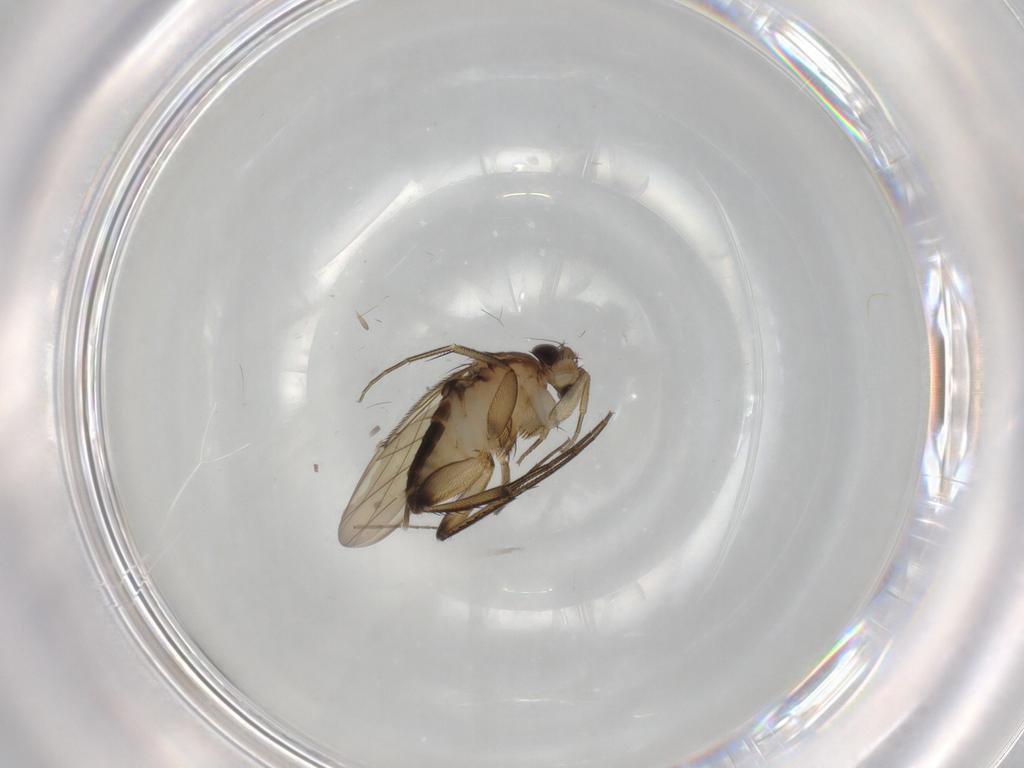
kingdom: Animalia
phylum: Arthropoda
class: Insecta
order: Diptera
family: Phoridae
